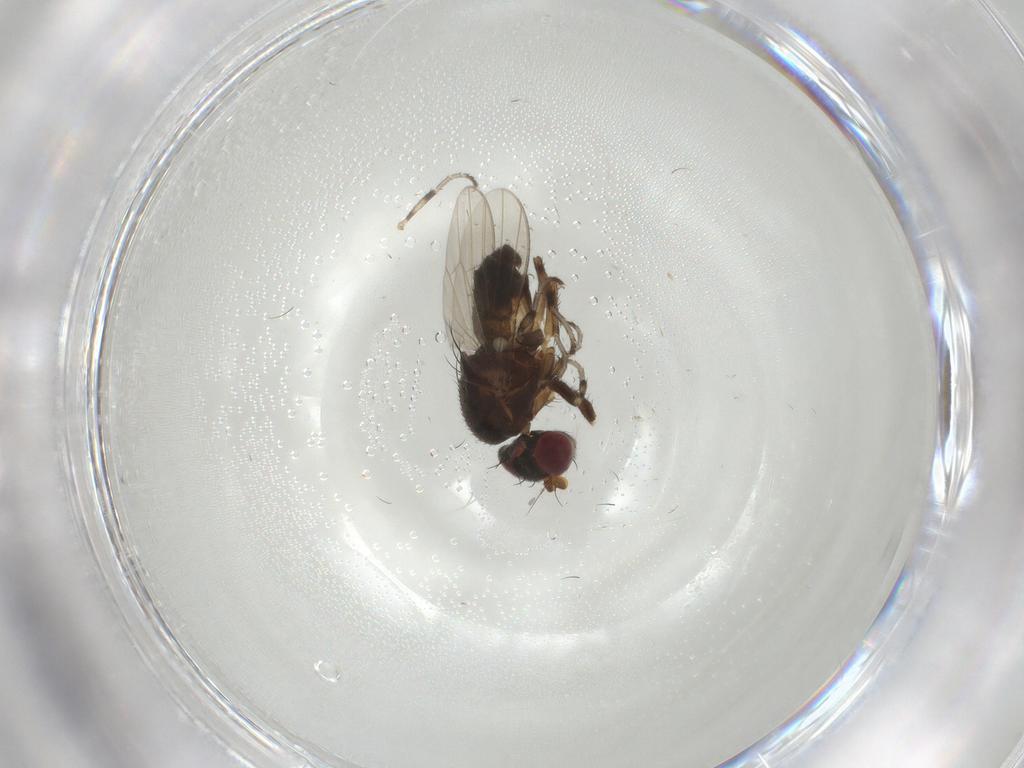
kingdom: Animalia
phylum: Arthropoda
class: Insecta
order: Diptera
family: Heleomyzidae
